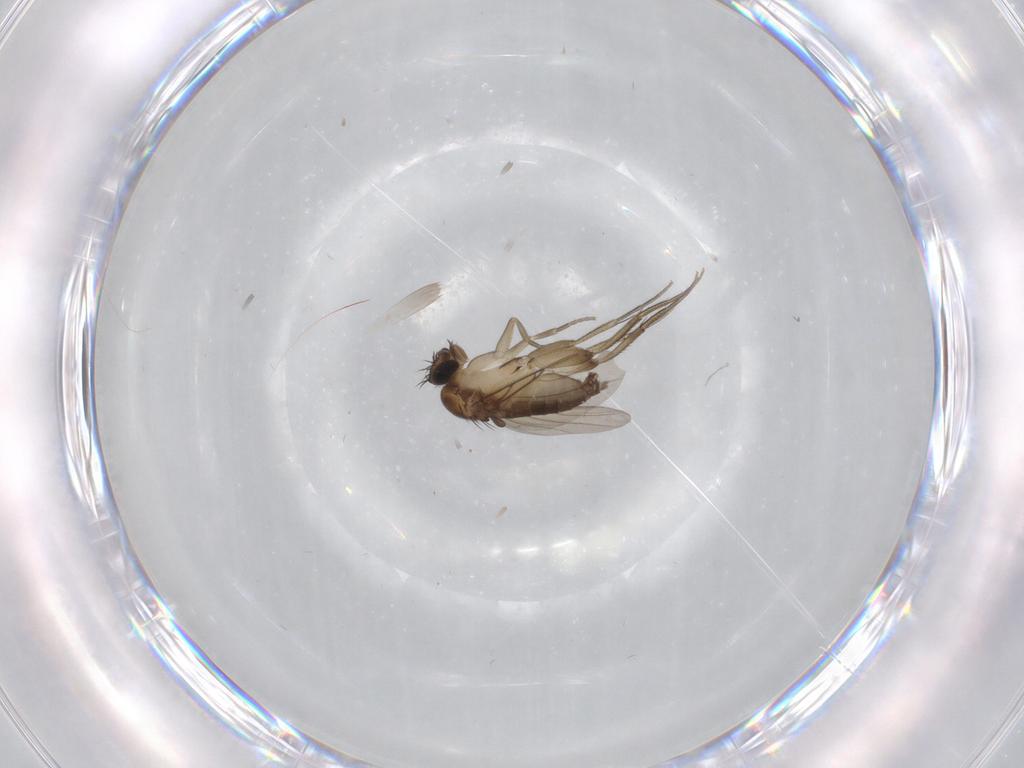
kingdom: Animalia
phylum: Arthropoda
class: Insecta
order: Diptera
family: Phoridae
